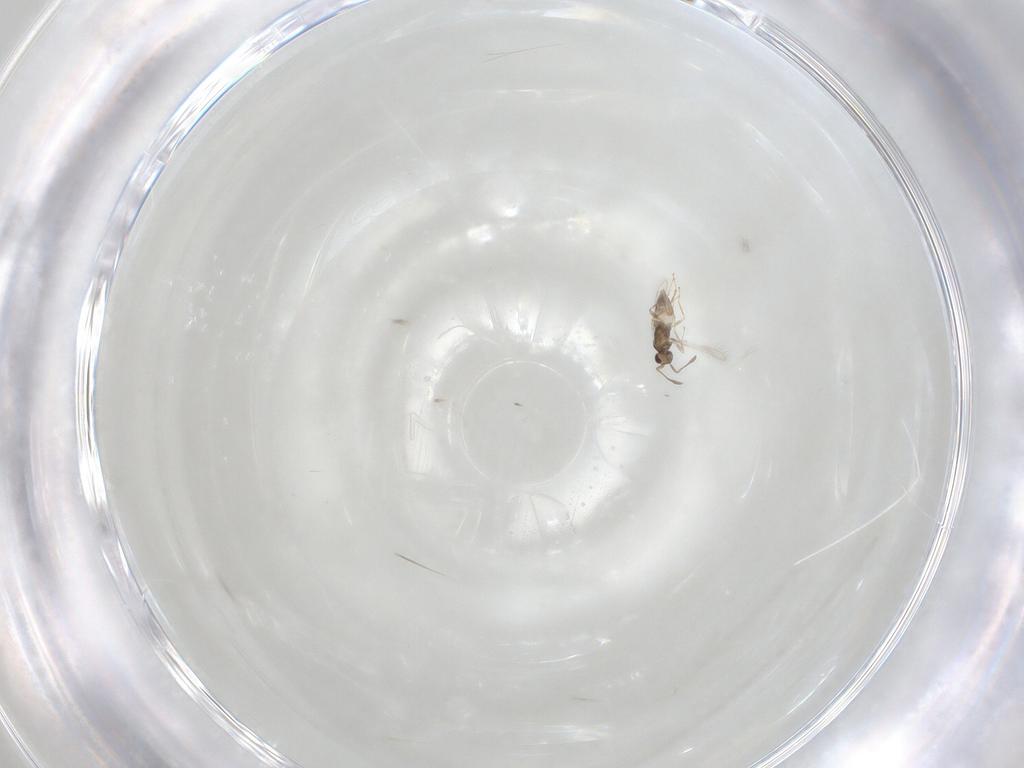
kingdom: Animalia
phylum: Arthropoda
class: Insecta
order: Hymenoptera
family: Mymaridae
